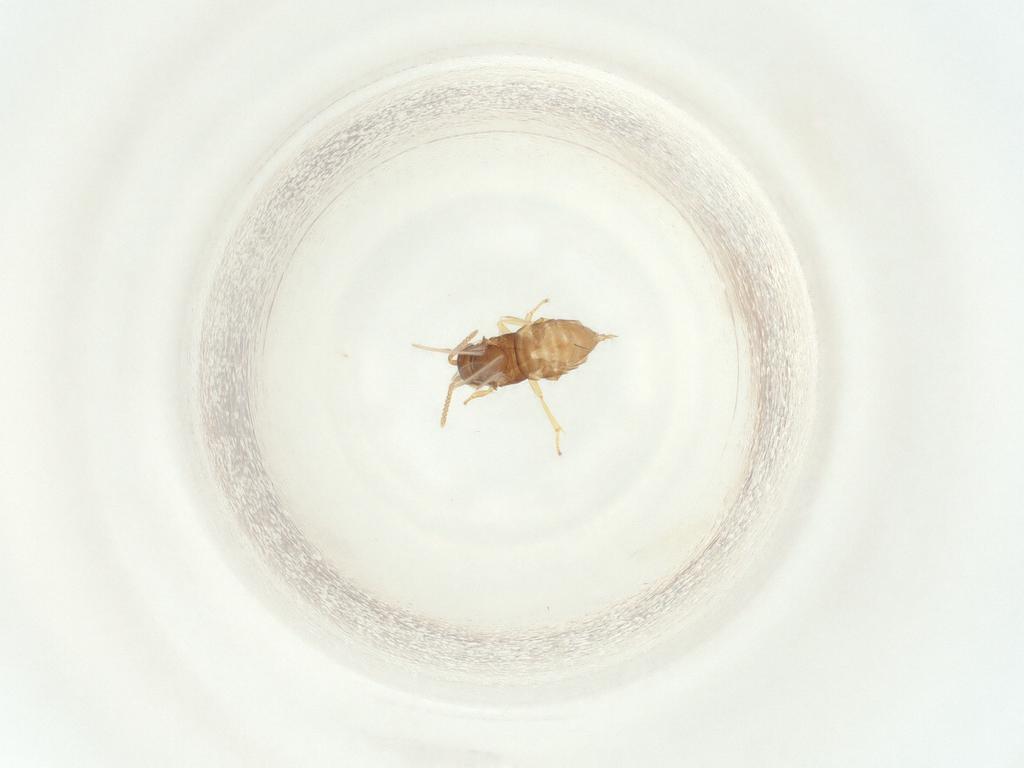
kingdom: Animalia
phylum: Arthropoda
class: Insecta
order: Diptera
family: Chironomidae
